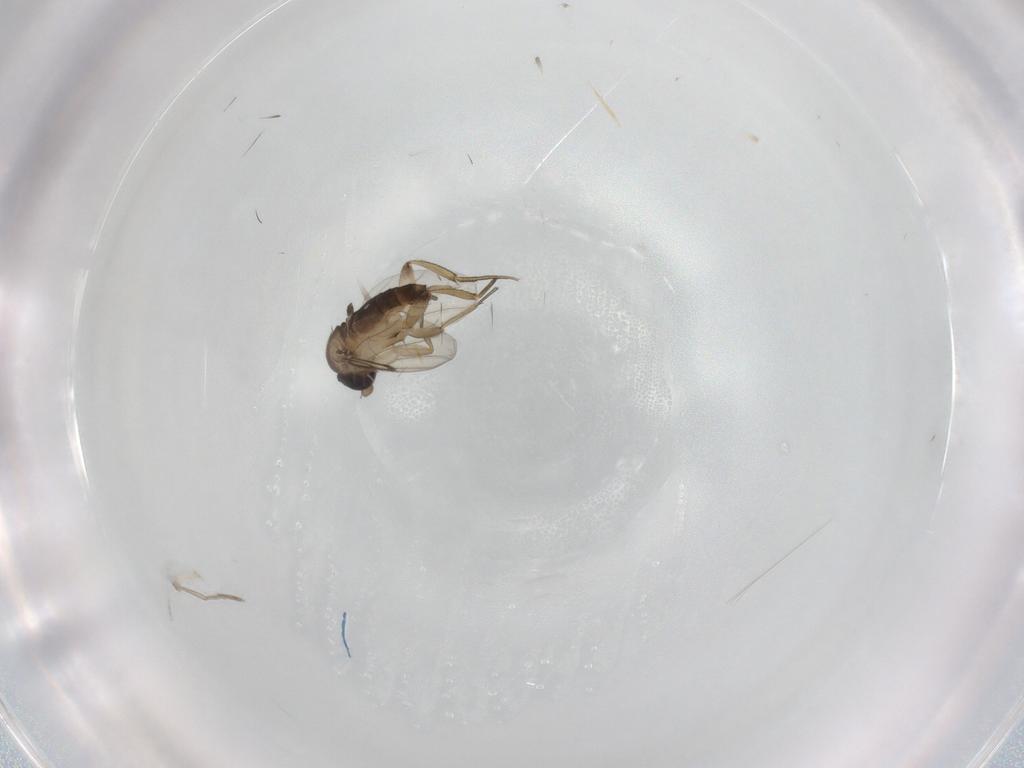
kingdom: Animalia
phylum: Arthropoda
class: Insecta
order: Diptera
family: Phoridae
